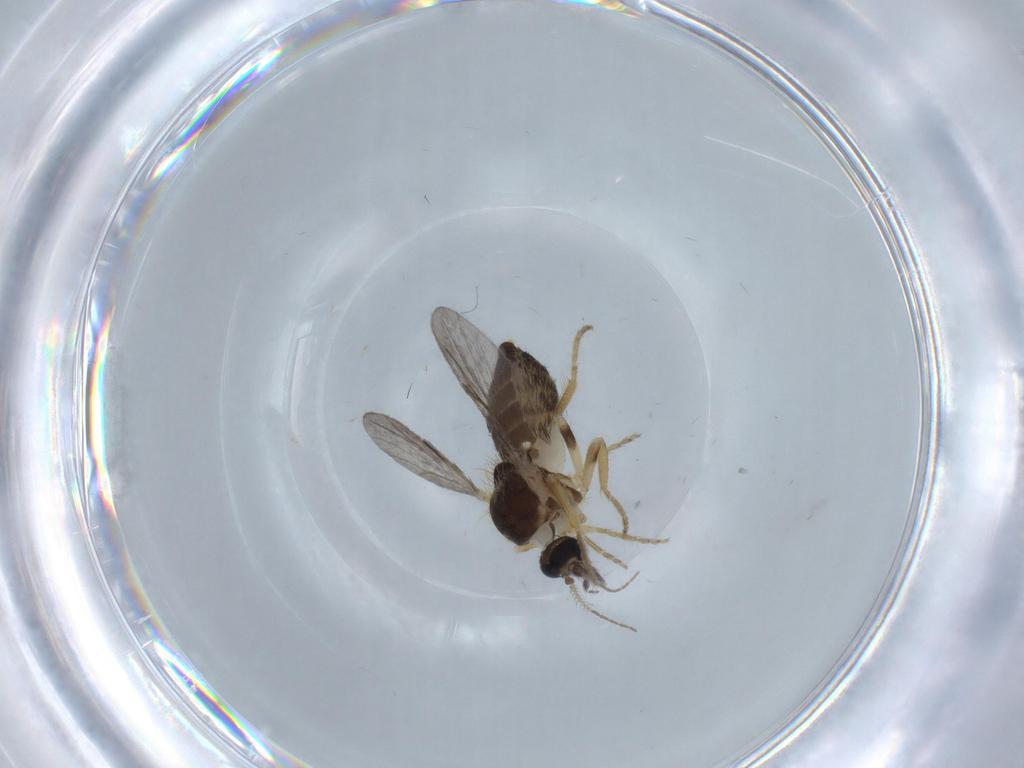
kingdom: Animalia
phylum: Arthropoda
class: Insecta
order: Diptera
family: Ceratopogonidae
